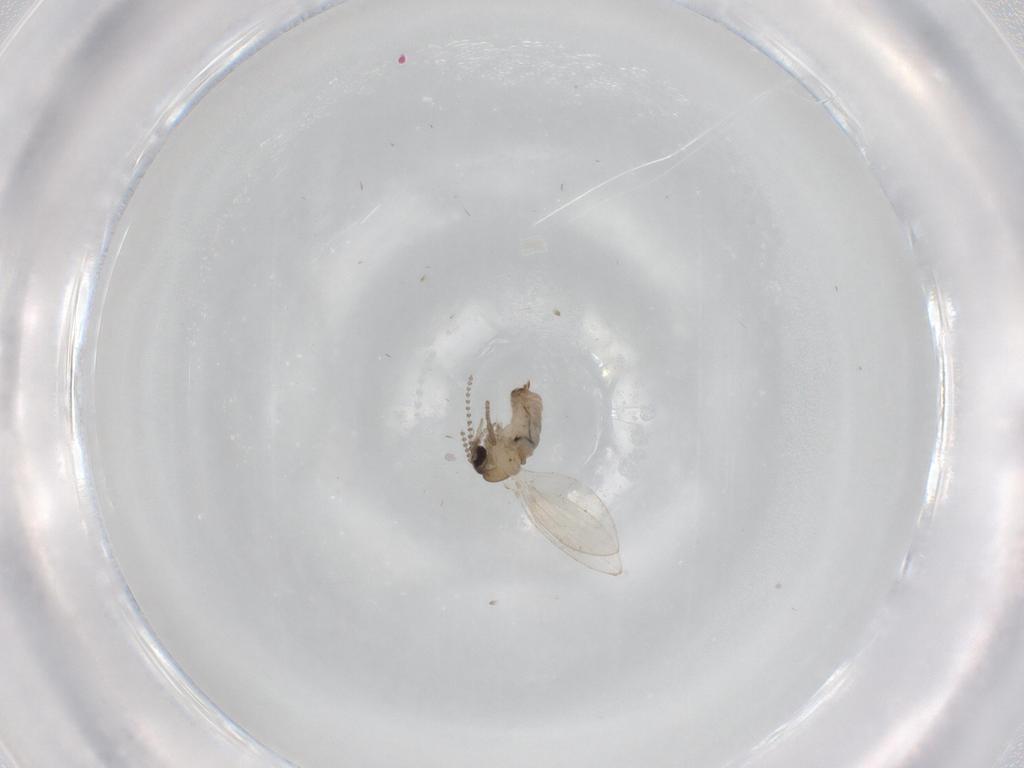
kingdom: Animalia
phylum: Arthropoda
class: Insecta
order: Diptera
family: Psychodidae
